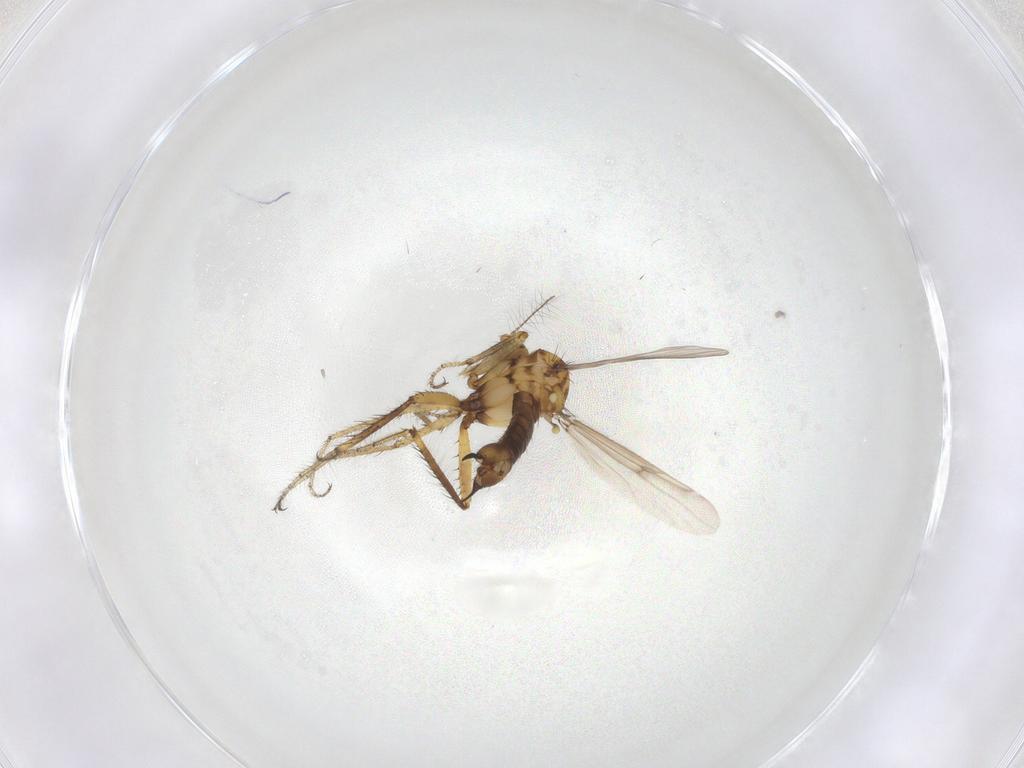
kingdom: Animalia
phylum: Arthropoda
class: Insecta
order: Diptera
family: Ceratopogonidae
